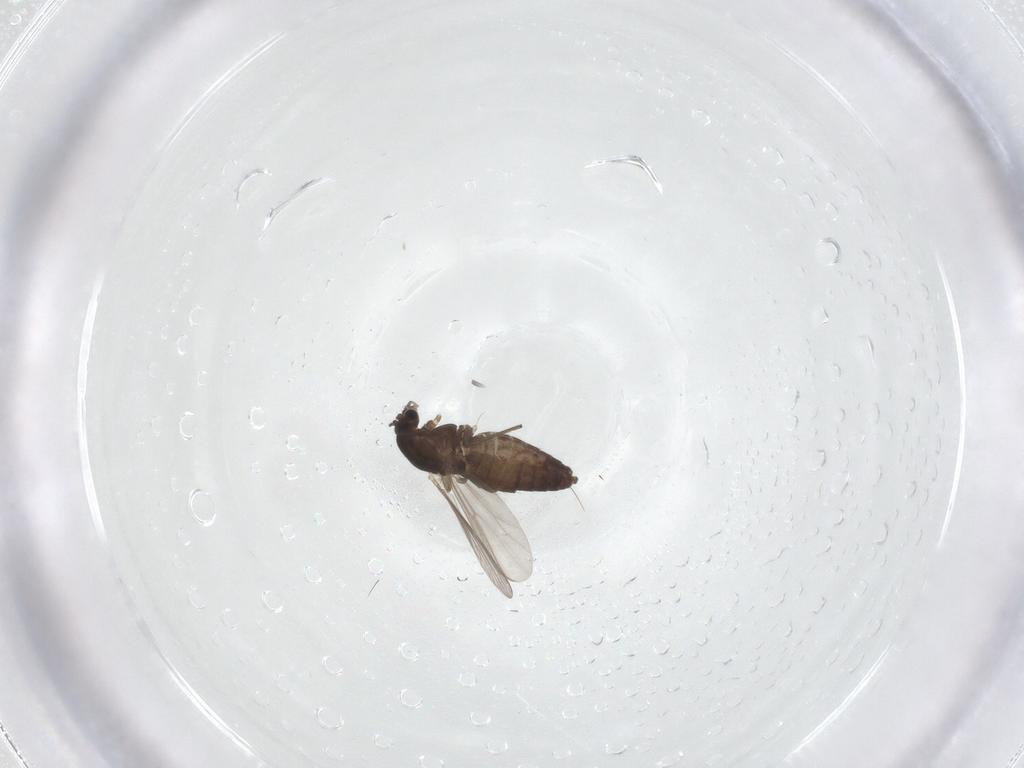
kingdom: Animalia
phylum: Arthropoda
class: Insecta
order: Diptera
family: Chironomidae
